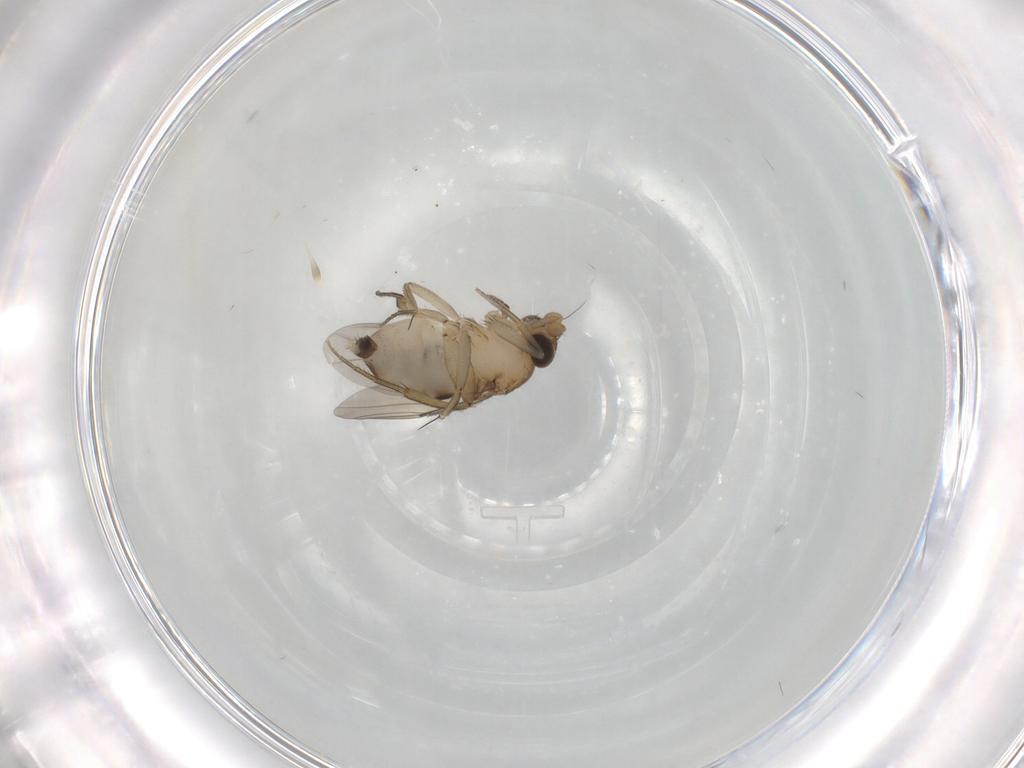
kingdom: Animalia
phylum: Arthropoda
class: Insecta
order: Diptera
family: Cecidomyiidae
